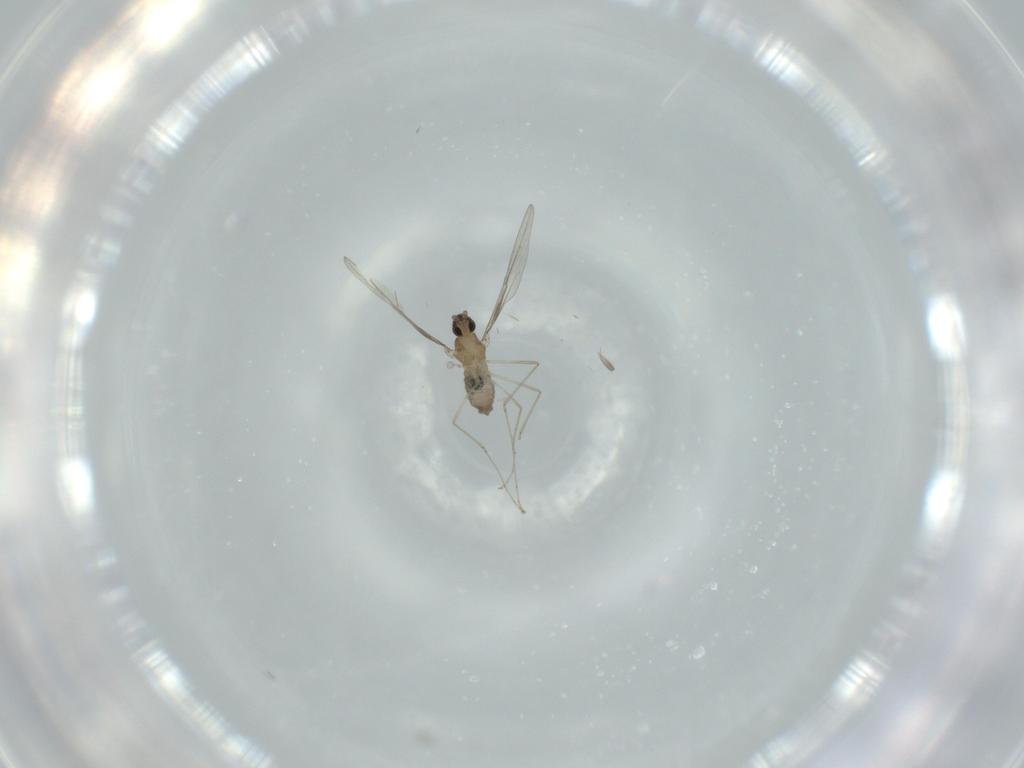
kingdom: Animalia
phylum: Arthropoda
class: Insecta
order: Diptera
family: Cecidomyiidae
